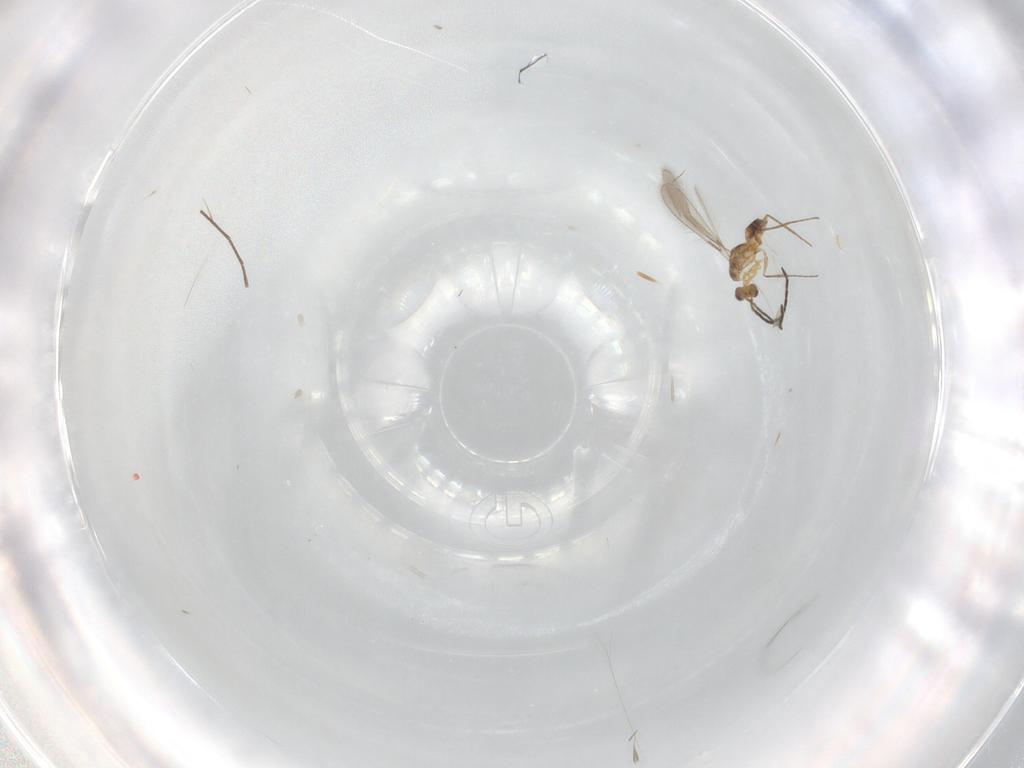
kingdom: Animalia
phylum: Arthropoda
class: Insecta
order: Hymenoptera
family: Mymaridae
